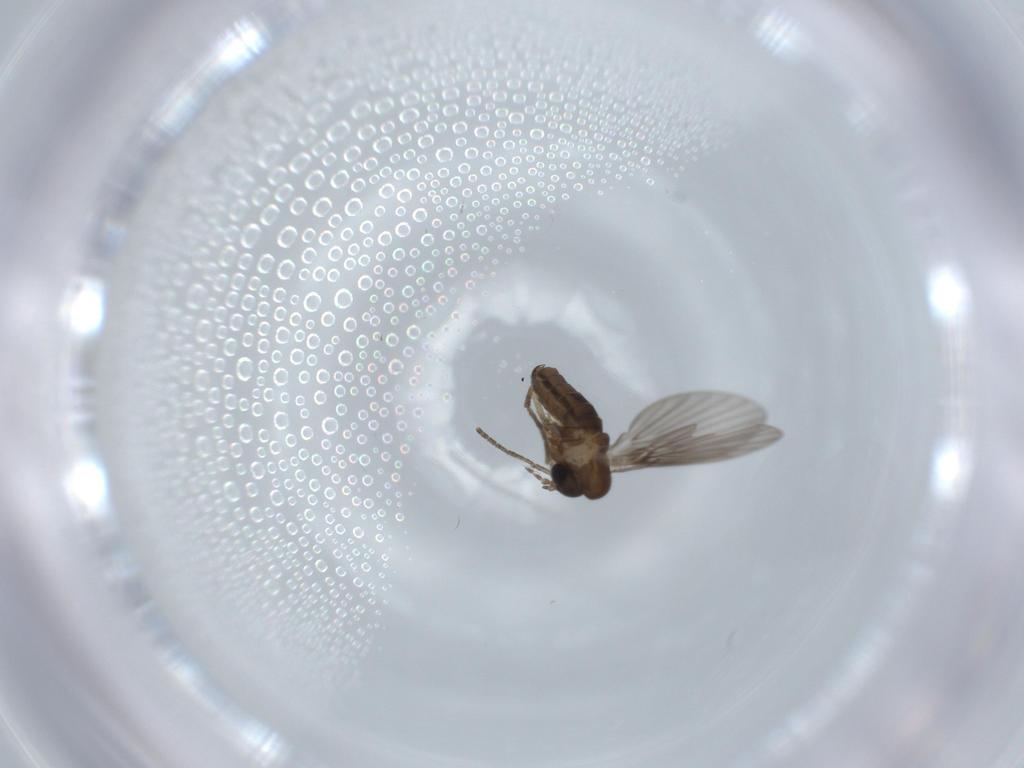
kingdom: Animalia
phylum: Arthropoda
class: Insecta
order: Diptera
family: Psychodidae
